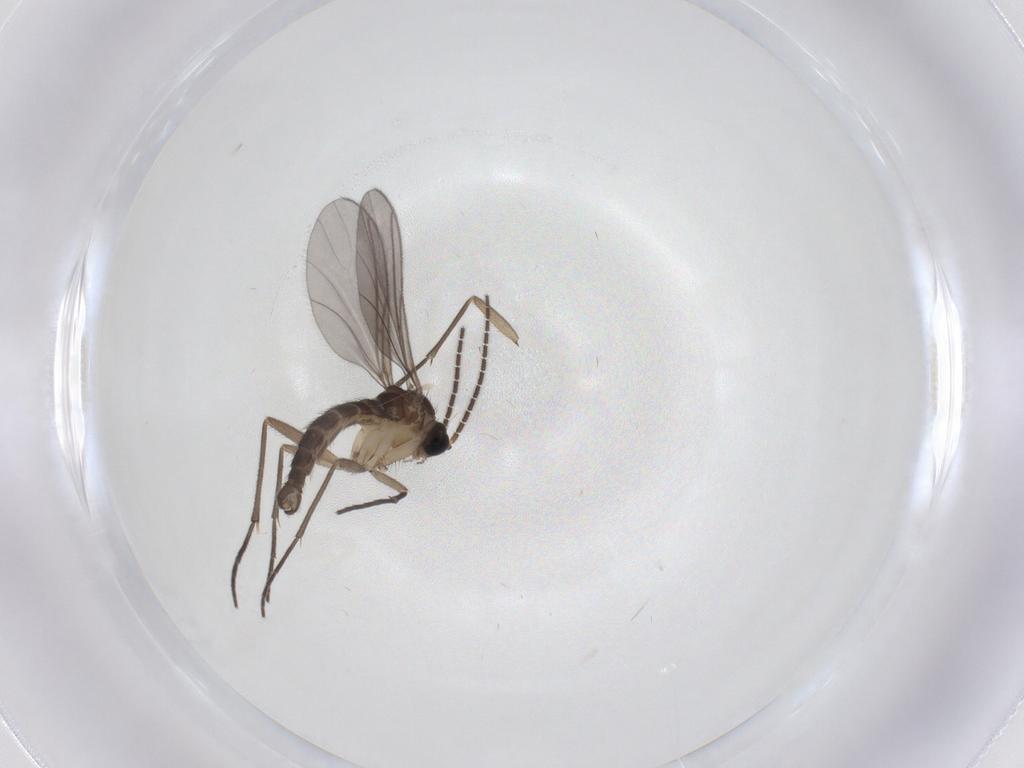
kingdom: Animalia
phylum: Arthropoda
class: Insecta
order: Diptera
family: Sciaridae
